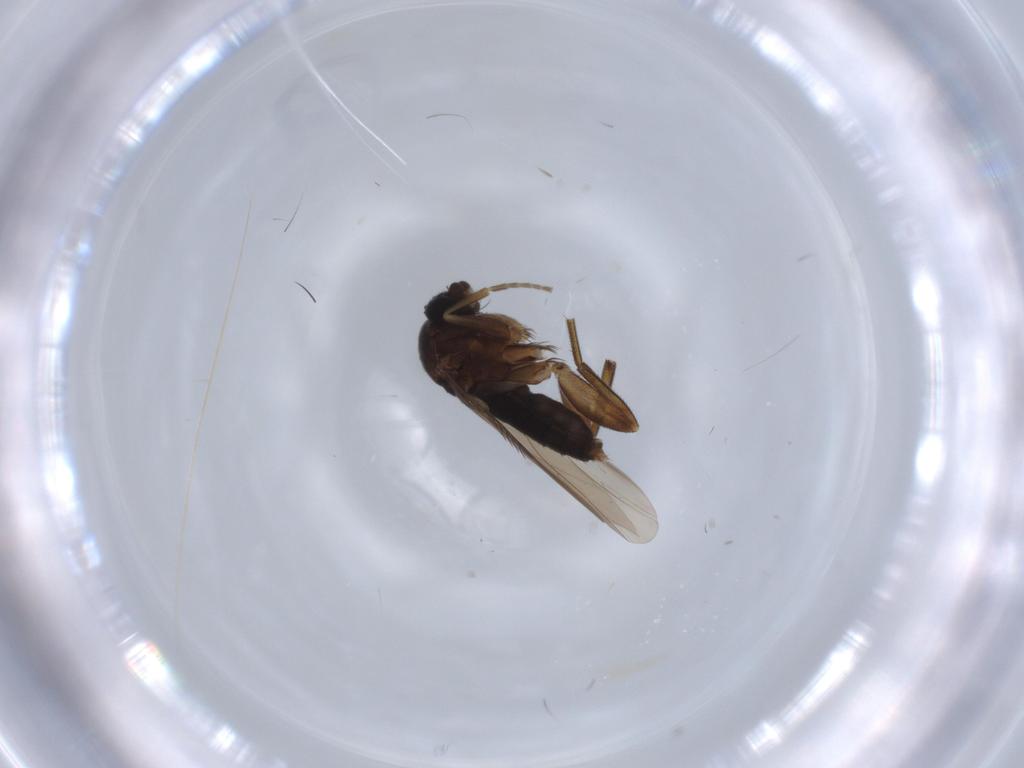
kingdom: Animalia
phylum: Arthropoda
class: Insecta
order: Diptera
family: Phoridae
